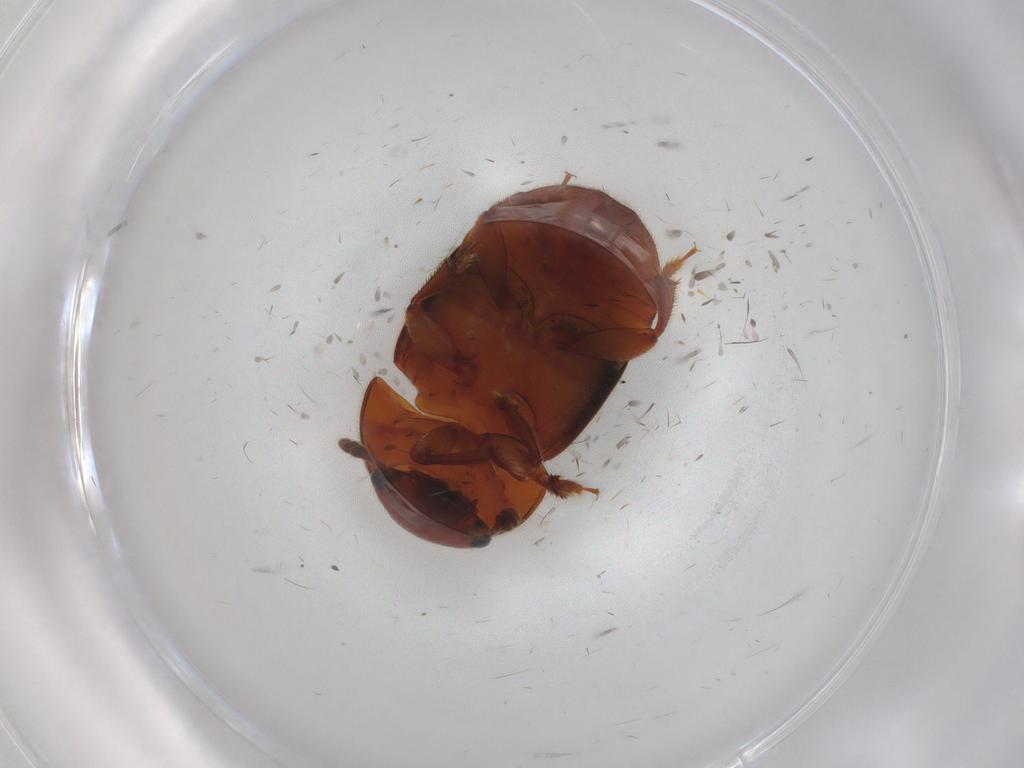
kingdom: Animalia
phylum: Arthropoda
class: Insecta
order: Coleoptera
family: Nitidulidae
